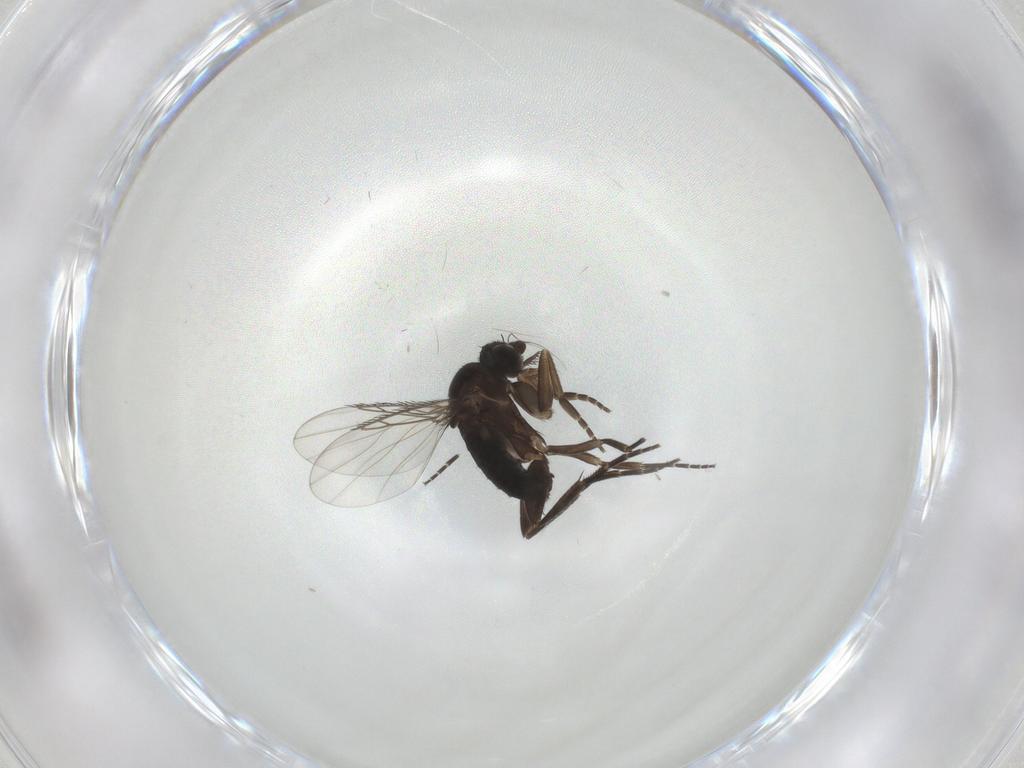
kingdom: Animalia
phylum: Arthropoda
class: Insecta
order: Diptera
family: Phoridae
